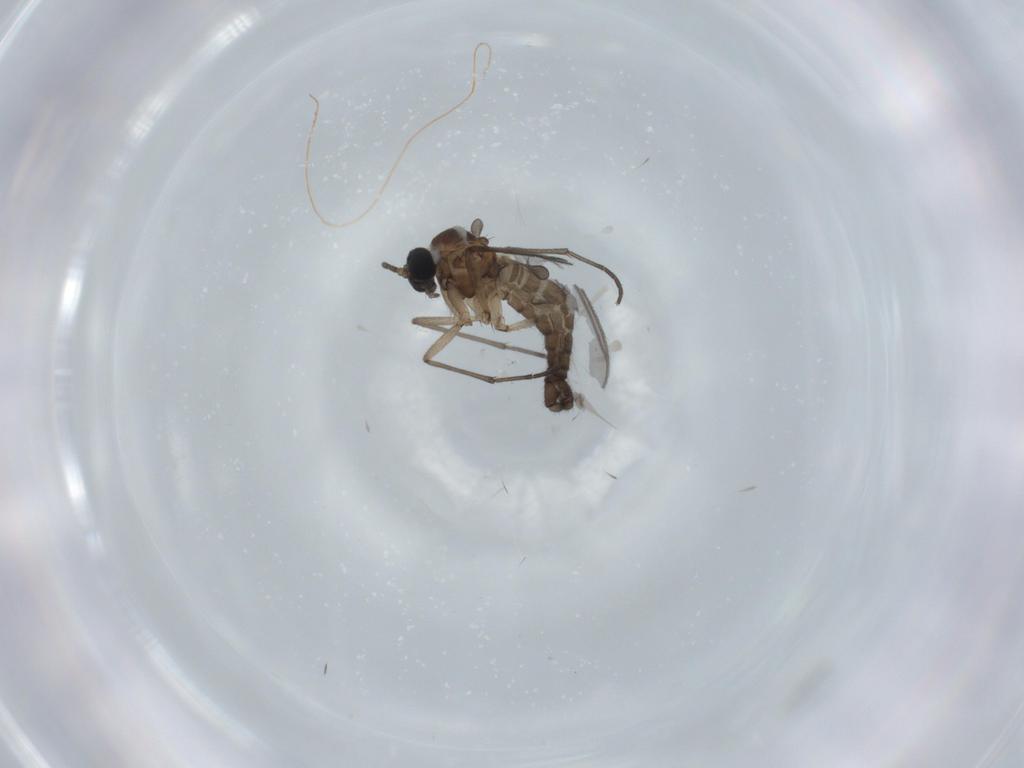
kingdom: Animalia
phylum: Arthropoda
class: Insecta
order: Diptera
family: Sciaridae
